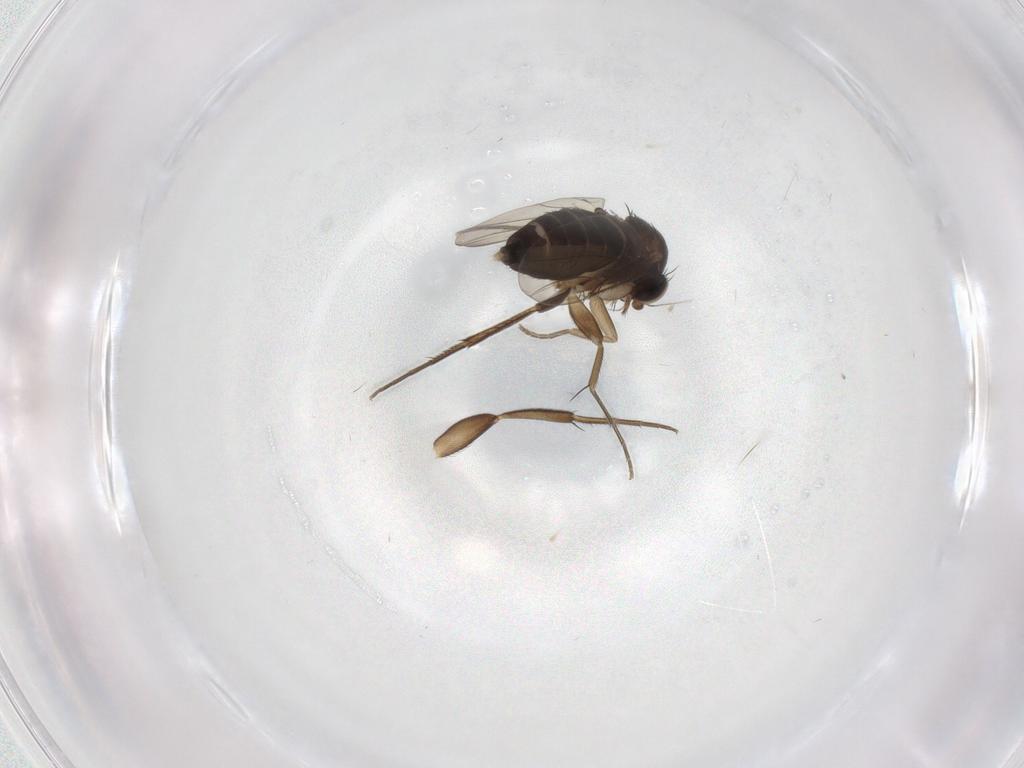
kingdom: Animalia
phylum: Arthropoda
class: Insecta
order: Diptera
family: Phoridae
